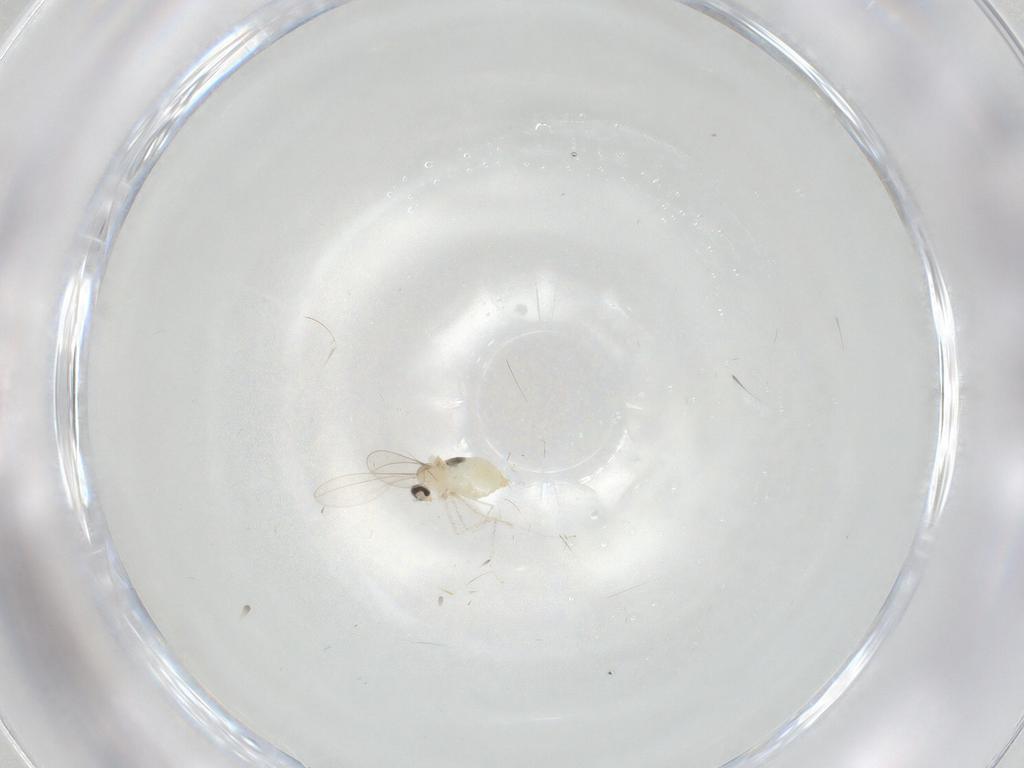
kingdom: Animalia
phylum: Arthropoda
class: Insecta
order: Diptera
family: Cecidomyiidae
